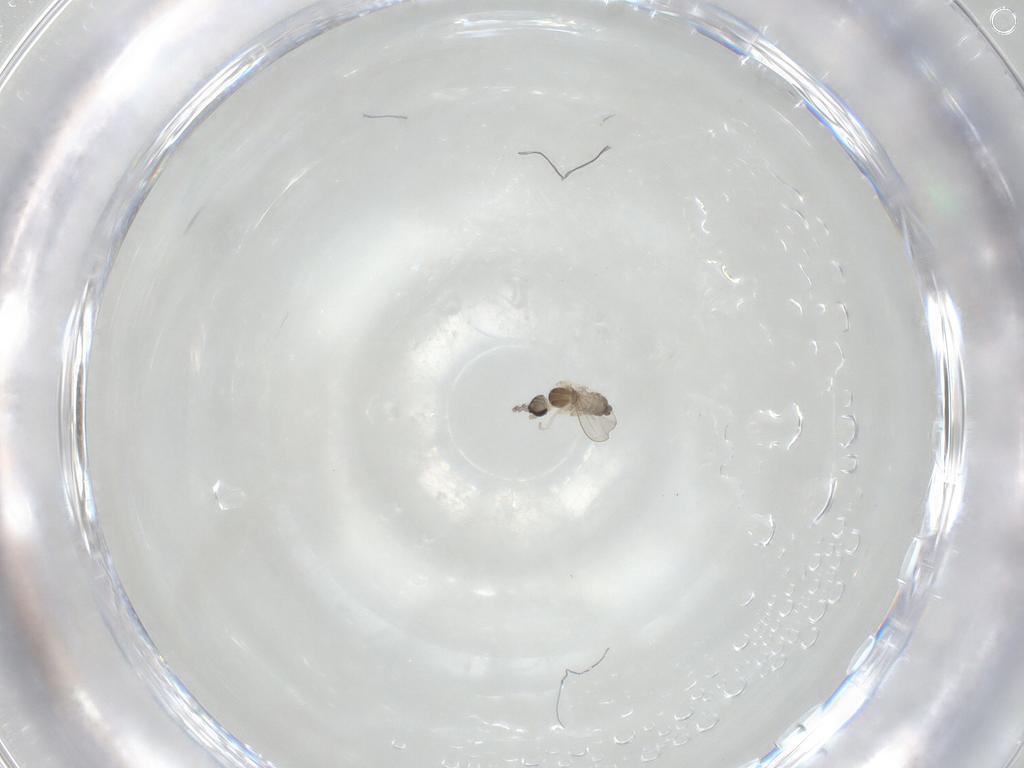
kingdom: Animalia
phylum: Arthropoda
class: Insecta
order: Diptera
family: Cecidomyiidae
